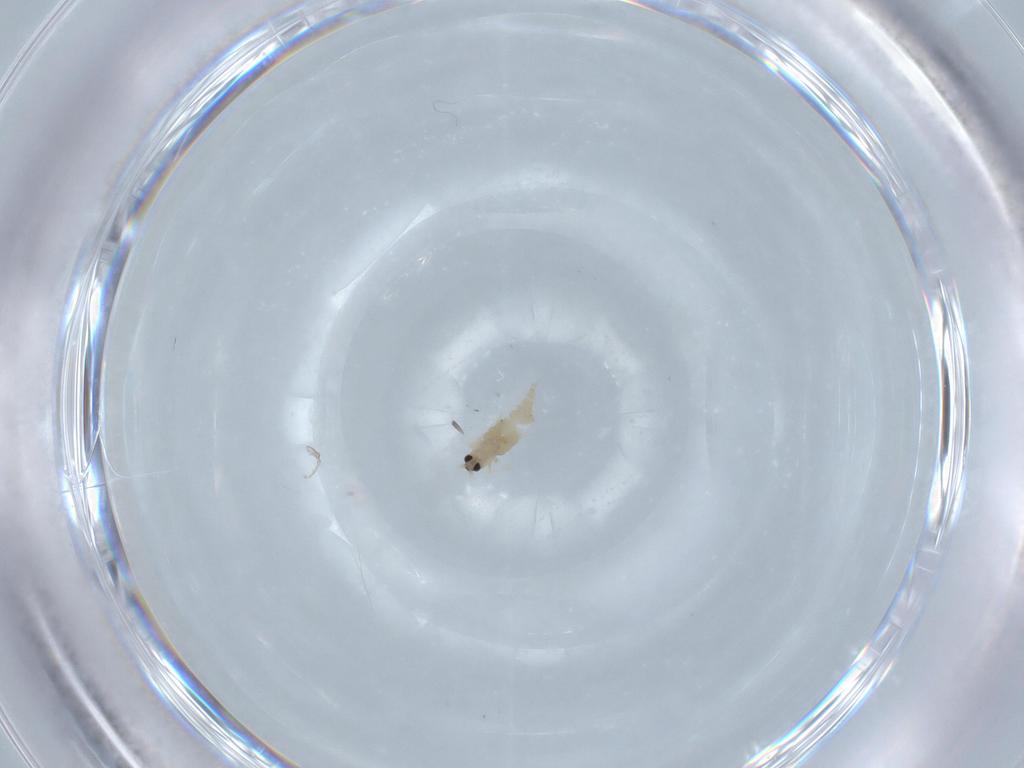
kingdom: Animalia
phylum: Arthropoda
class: Insecta
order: Diptera
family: Cecidomyiidae
